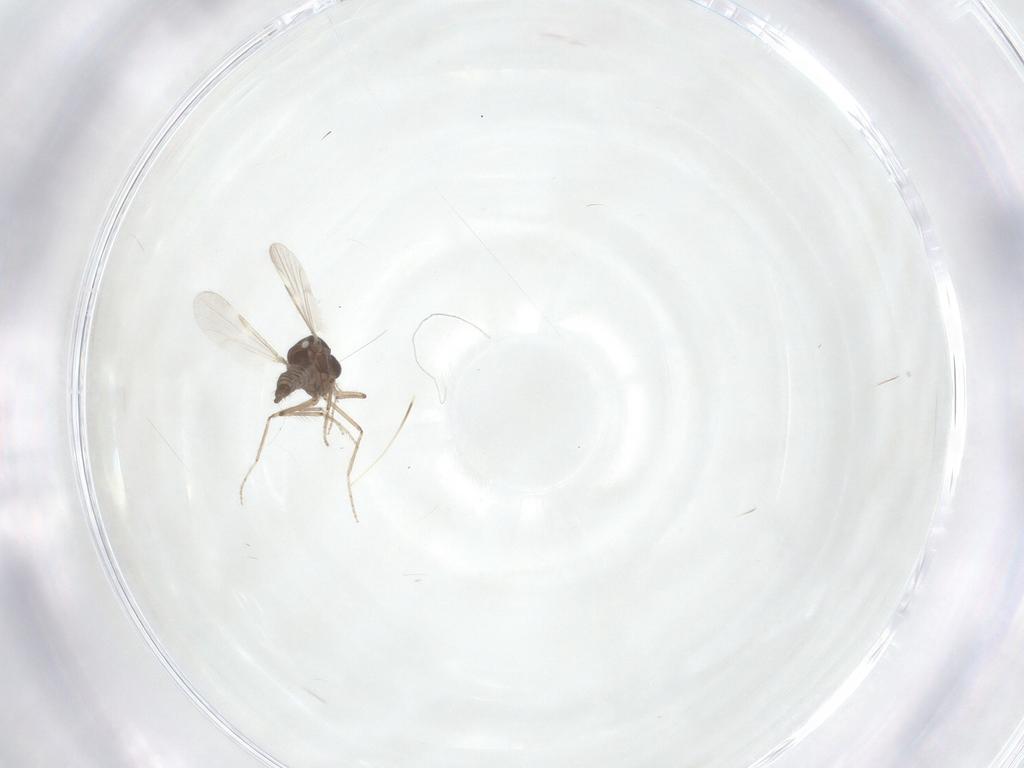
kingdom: Animalia
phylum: Arthropoda
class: Insecta
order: Diptera
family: Ceratopogonidae
